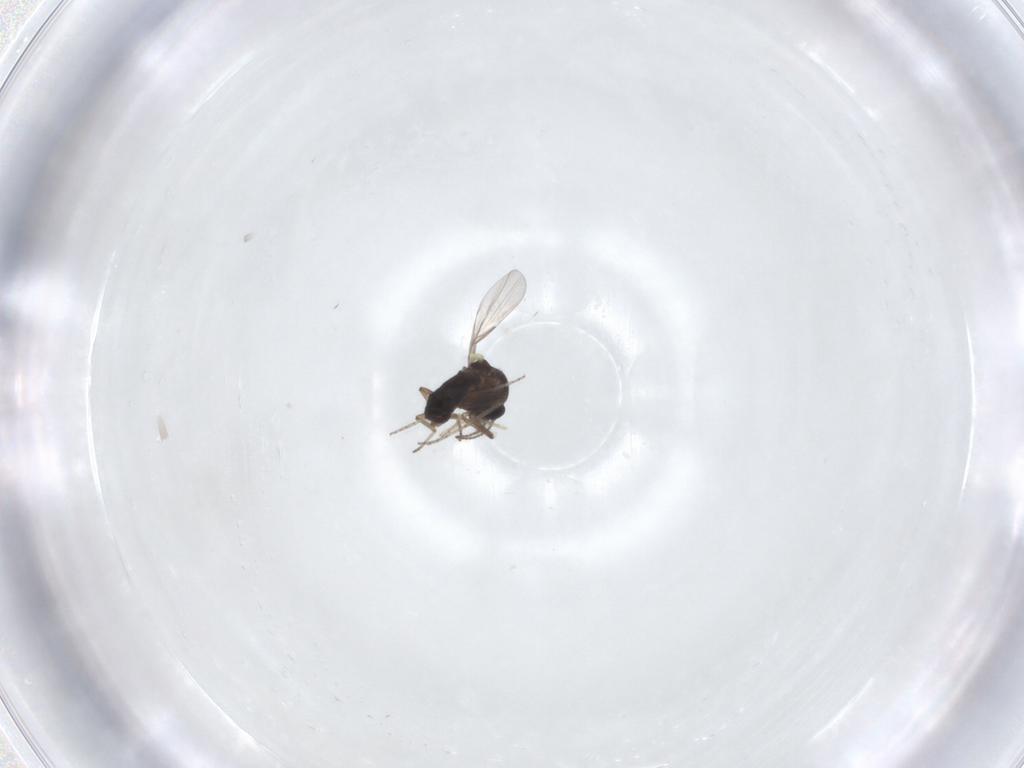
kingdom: Animalia
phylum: Arthropoda
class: Insecta
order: Diptera
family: Ceratopogonidae
